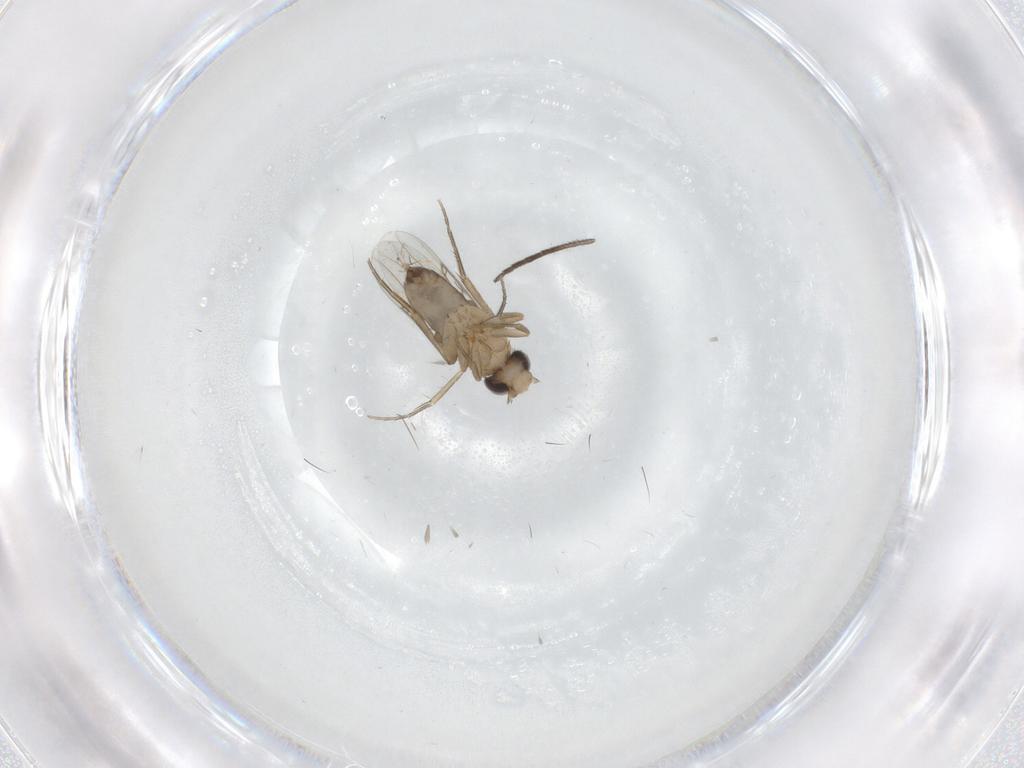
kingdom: Animalia
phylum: Arthropoda
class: Insecta
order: Diptera
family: Phoridae
